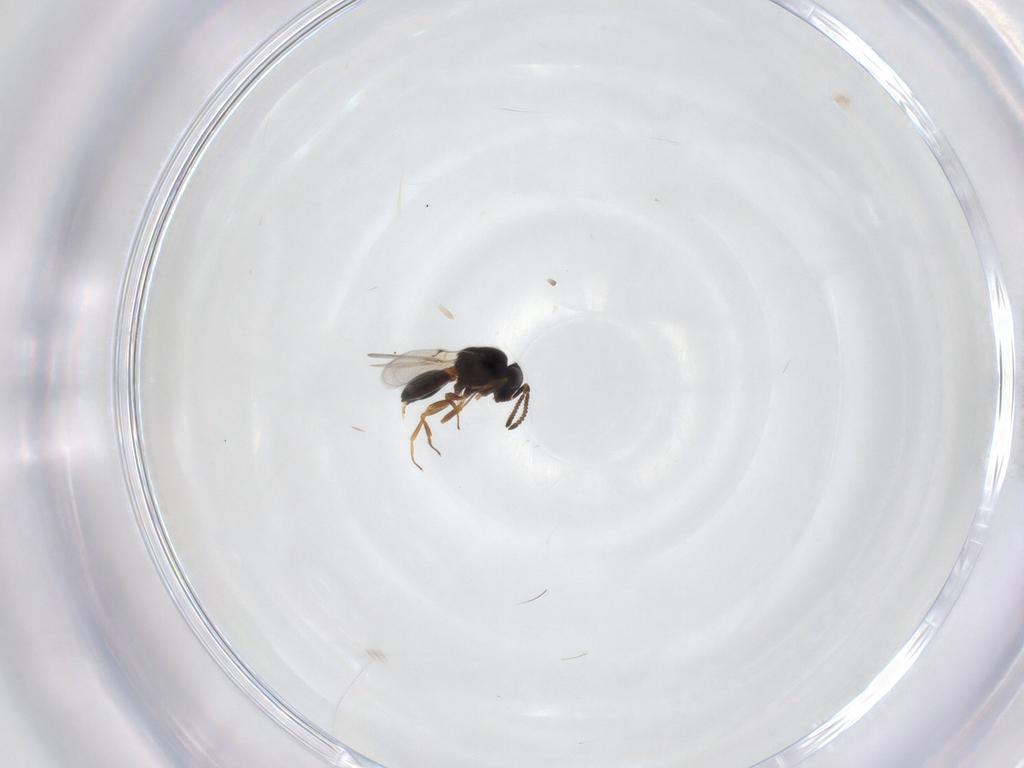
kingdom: Animalia
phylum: Arthropoda
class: Arachnida
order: Araneae
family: Pholcidae
